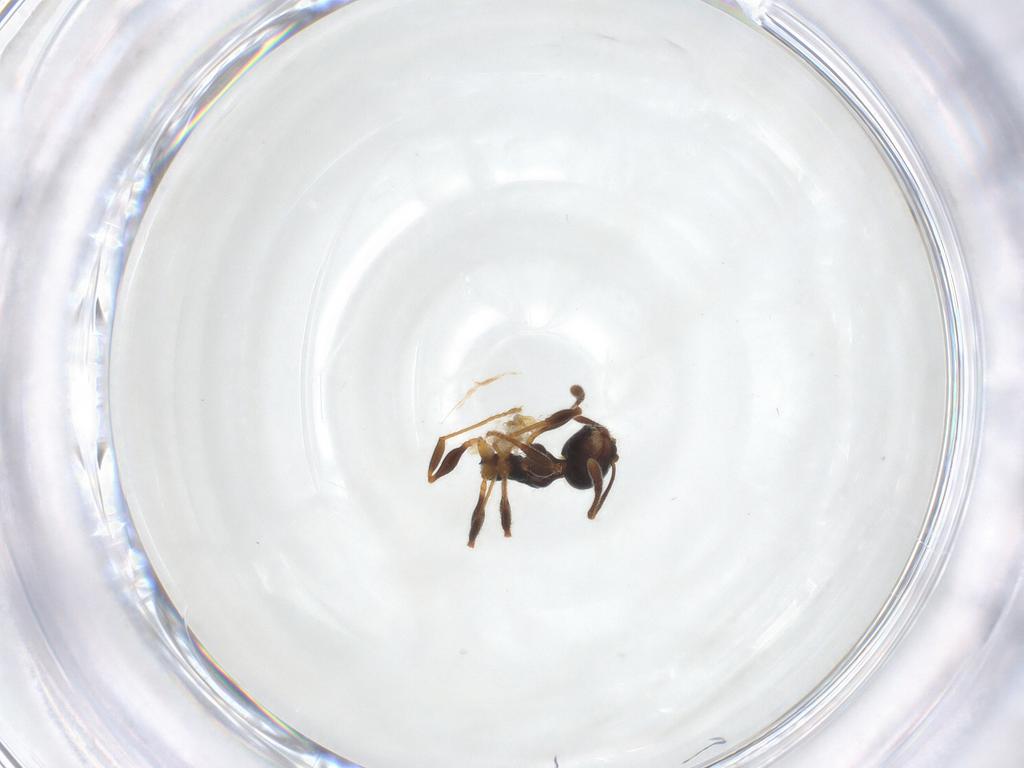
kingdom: Animalia
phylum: Arthropoda
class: Insecta
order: Hymenoptera
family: Formicidae
